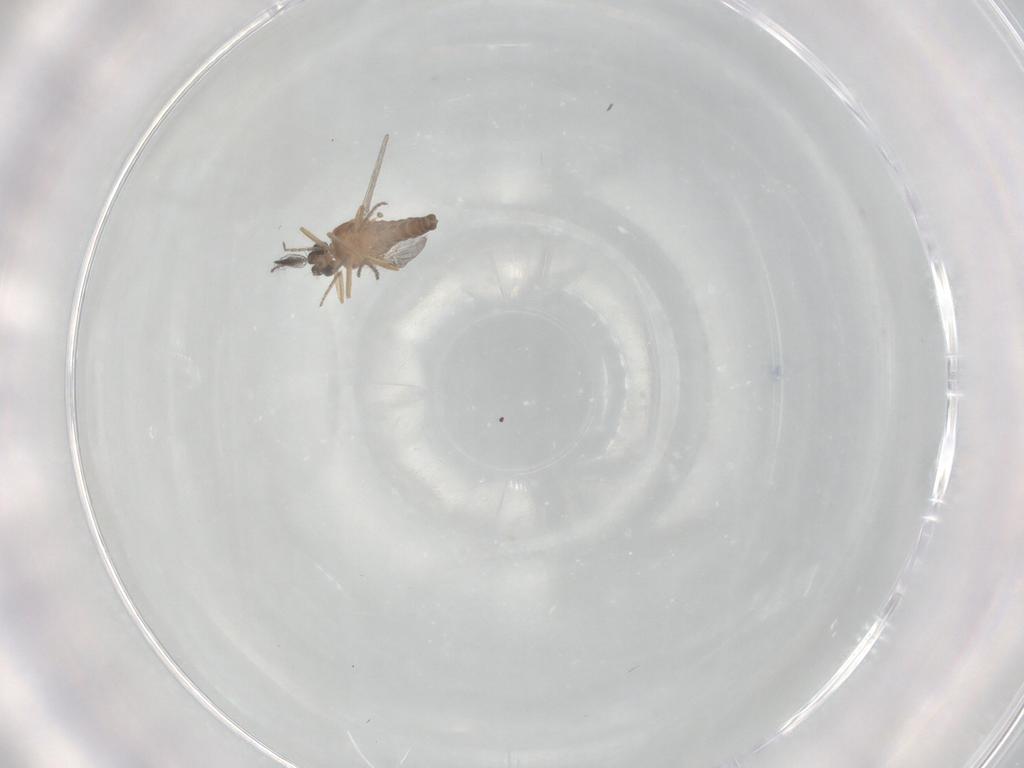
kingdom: Animalia
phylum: Arthropoda
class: Insecta
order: Diptera
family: Ceratopogonidae
